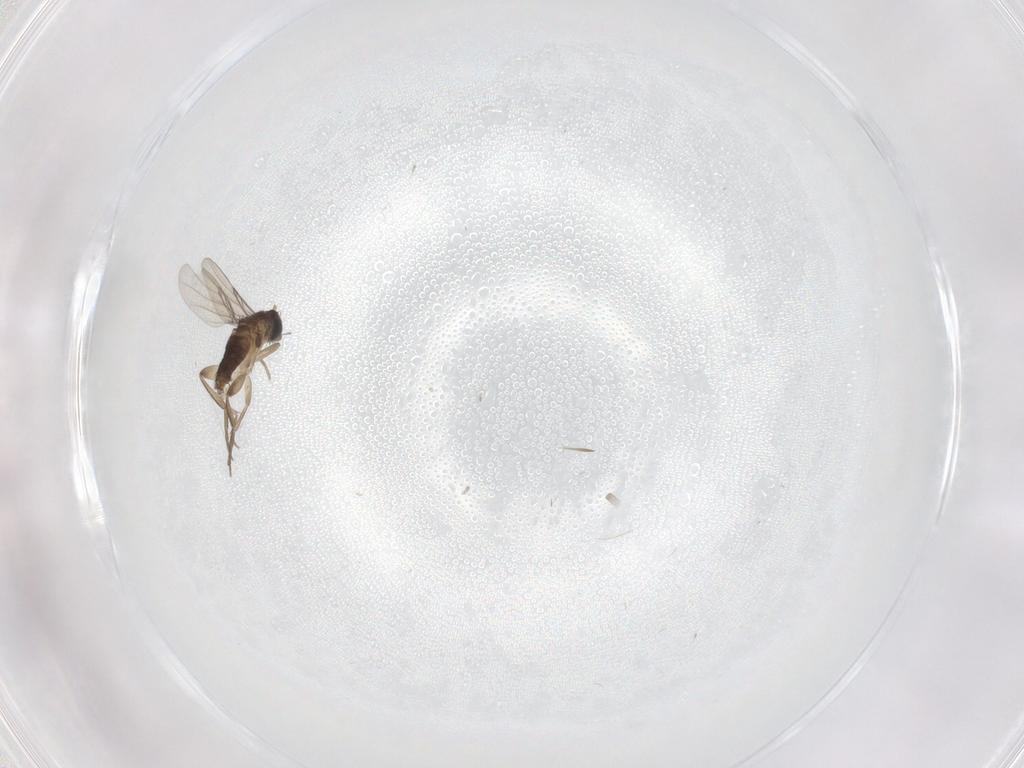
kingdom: Animalia
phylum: Arthropoda
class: Insecta
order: Diptera
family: Phoridae
